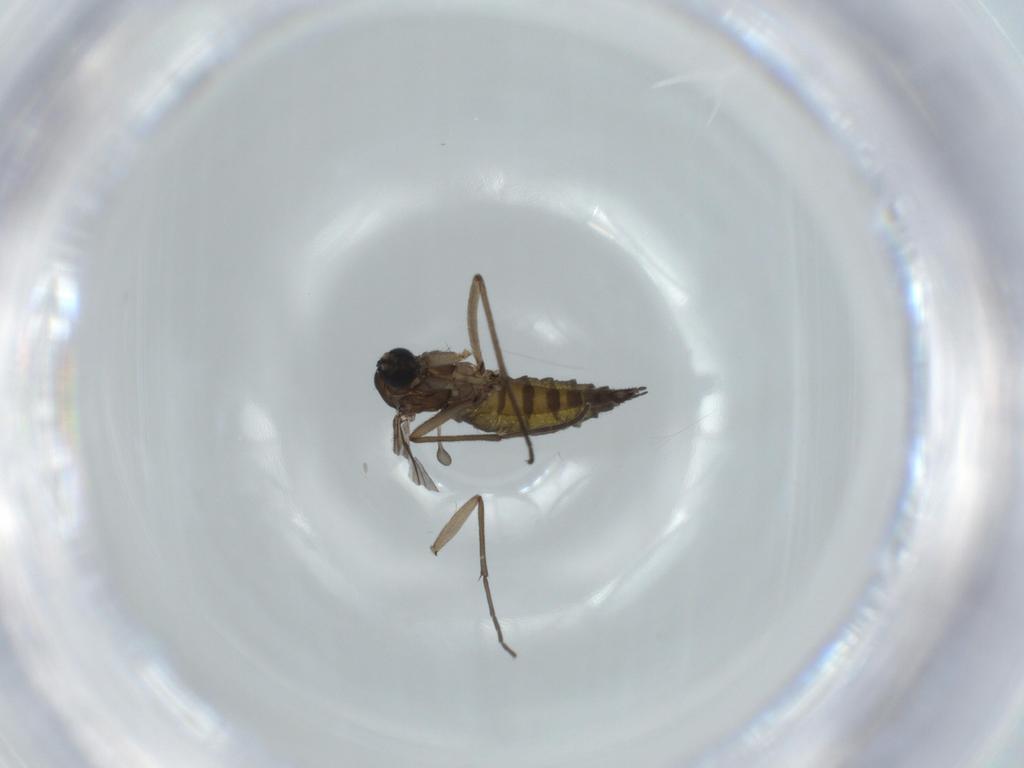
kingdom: Animalia
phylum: Arthropoda
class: Insecta
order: Diptera
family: Sciaridae
